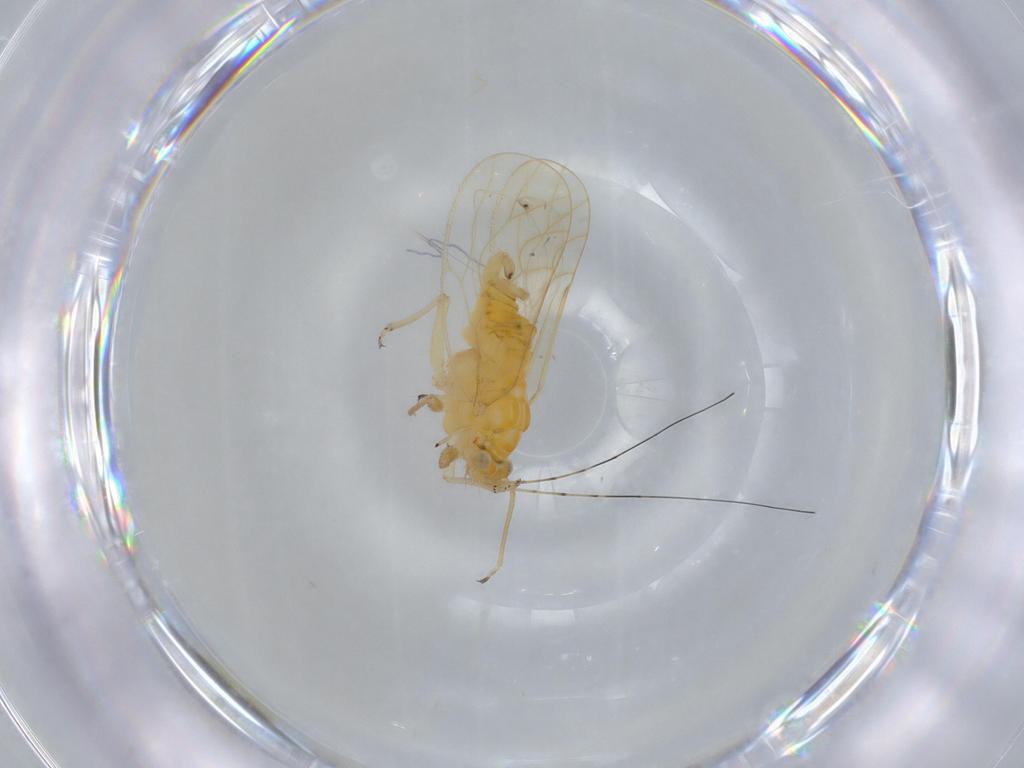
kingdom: Animalia
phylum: Arthropoda
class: Insecta
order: Hemiptera
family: Psyllidae
